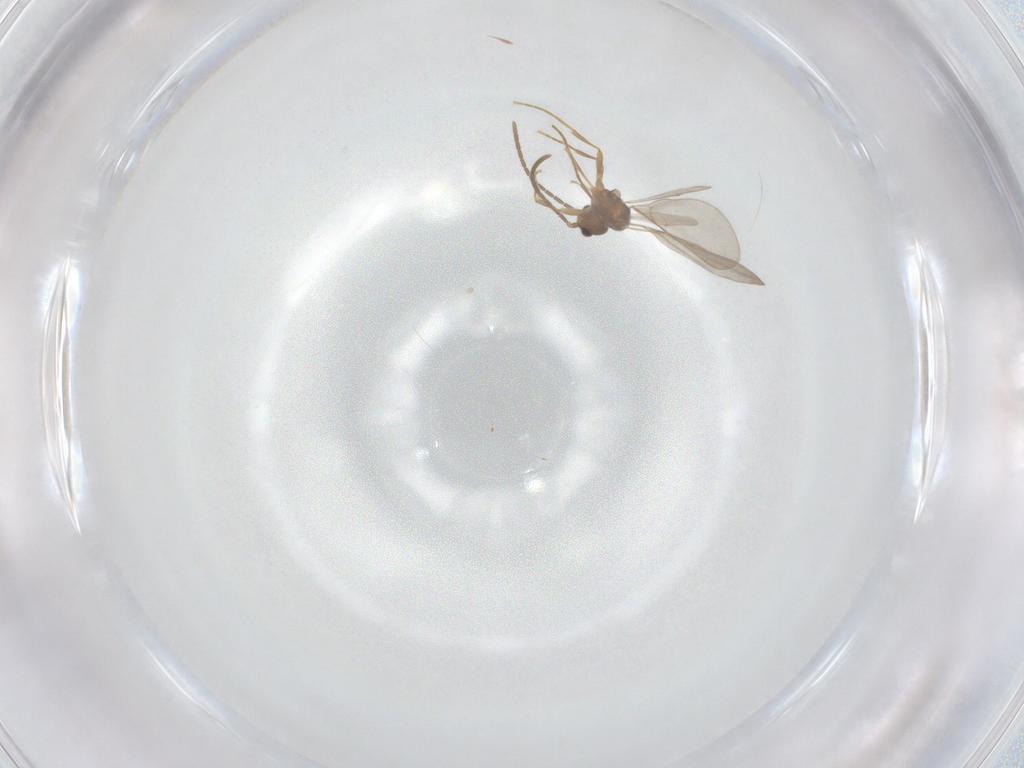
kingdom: Animalia
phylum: Arthropoda
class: Insecta
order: Hymenoptera
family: Formicidae
